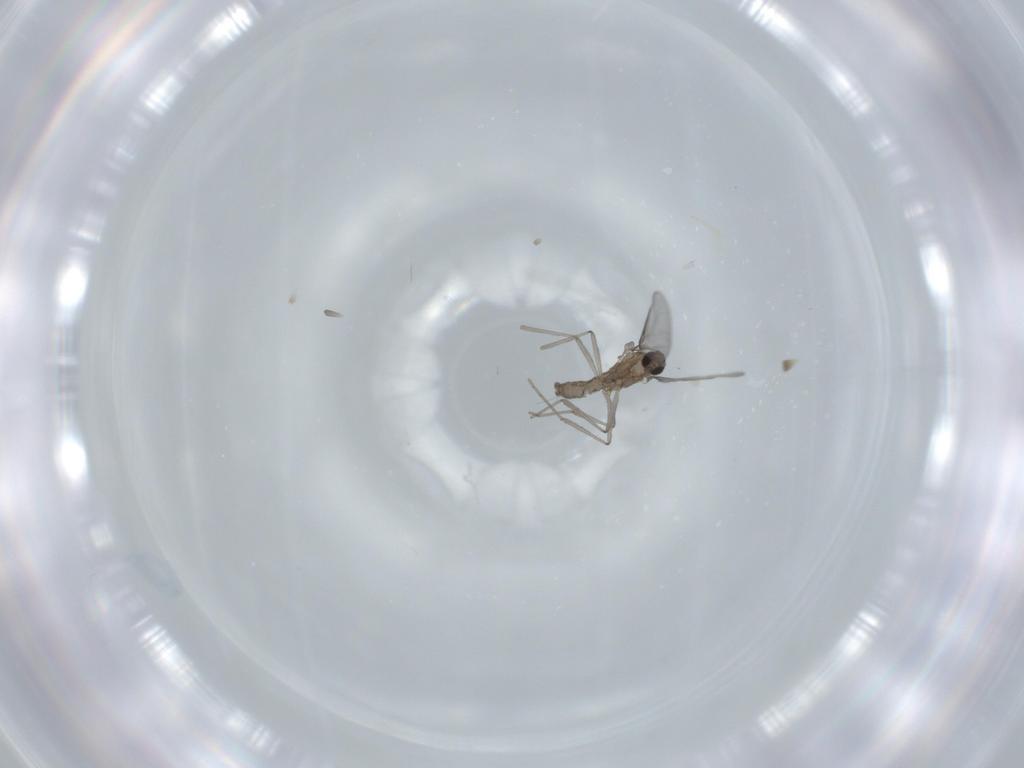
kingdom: Animalia
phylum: Arthropoda
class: Insecta
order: Diptera
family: Cecidomyiidae
